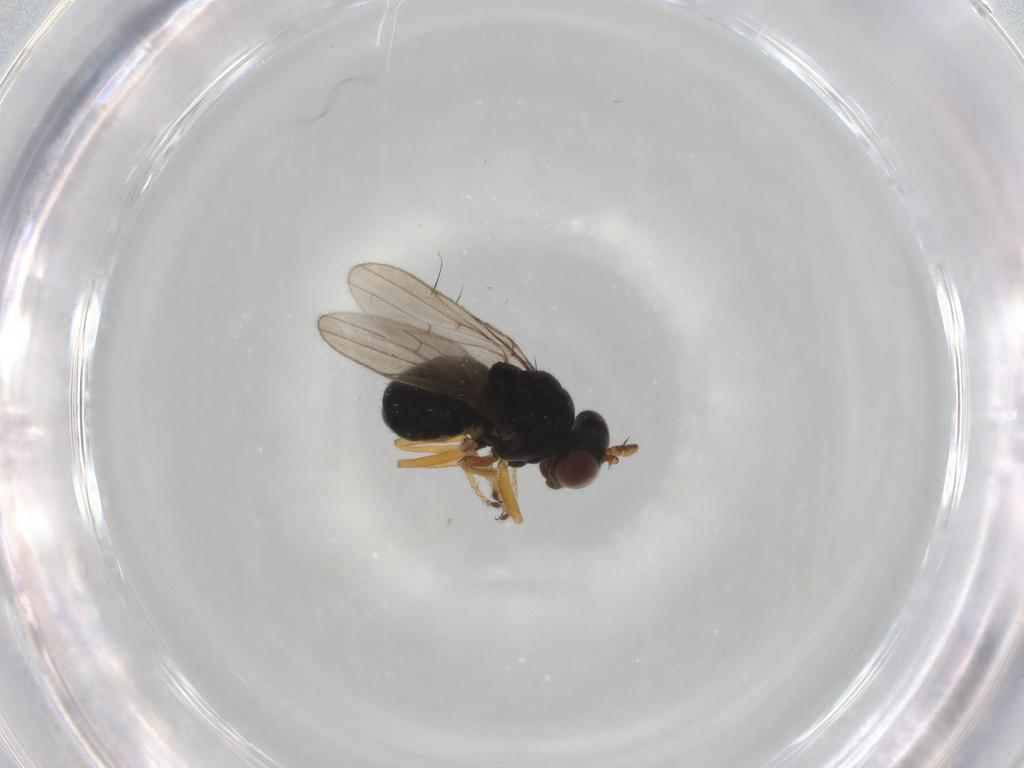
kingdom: Animalia
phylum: Arthropoda
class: Insecta
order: Diptera
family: Ephydridae
